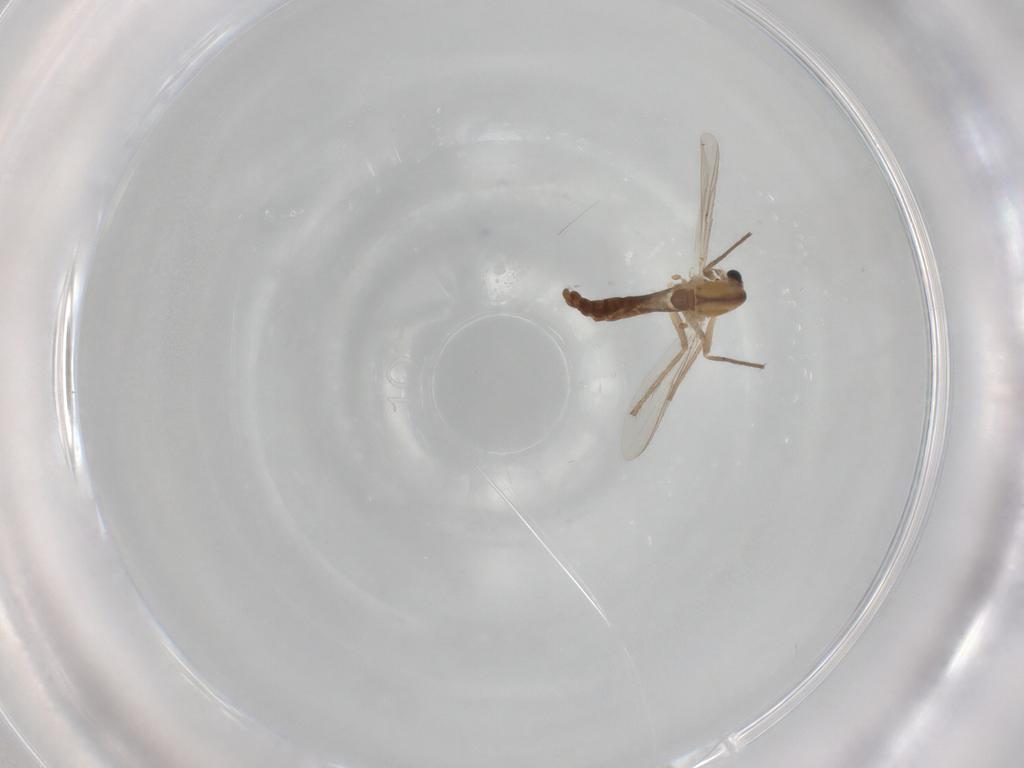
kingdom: Animalia
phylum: Arthropoda
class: Insecta
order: Diptera
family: Chironomidae
